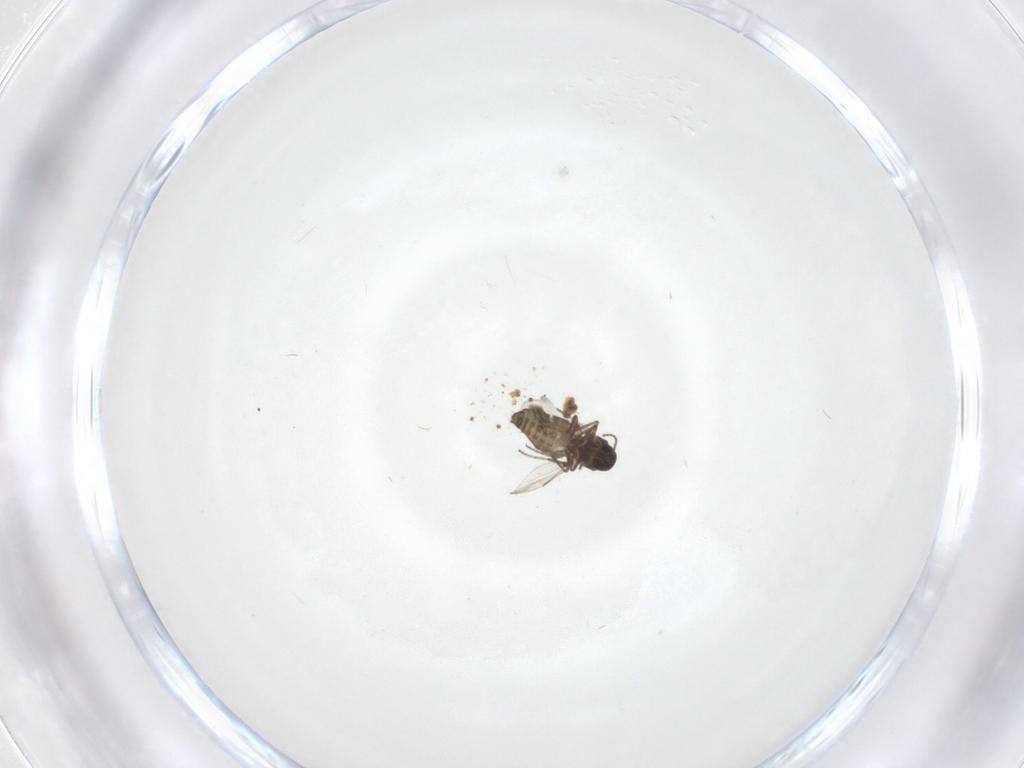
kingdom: Animalia
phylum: Arthropoda
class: Insecta
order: Diptera
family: Ceratopogonidae
